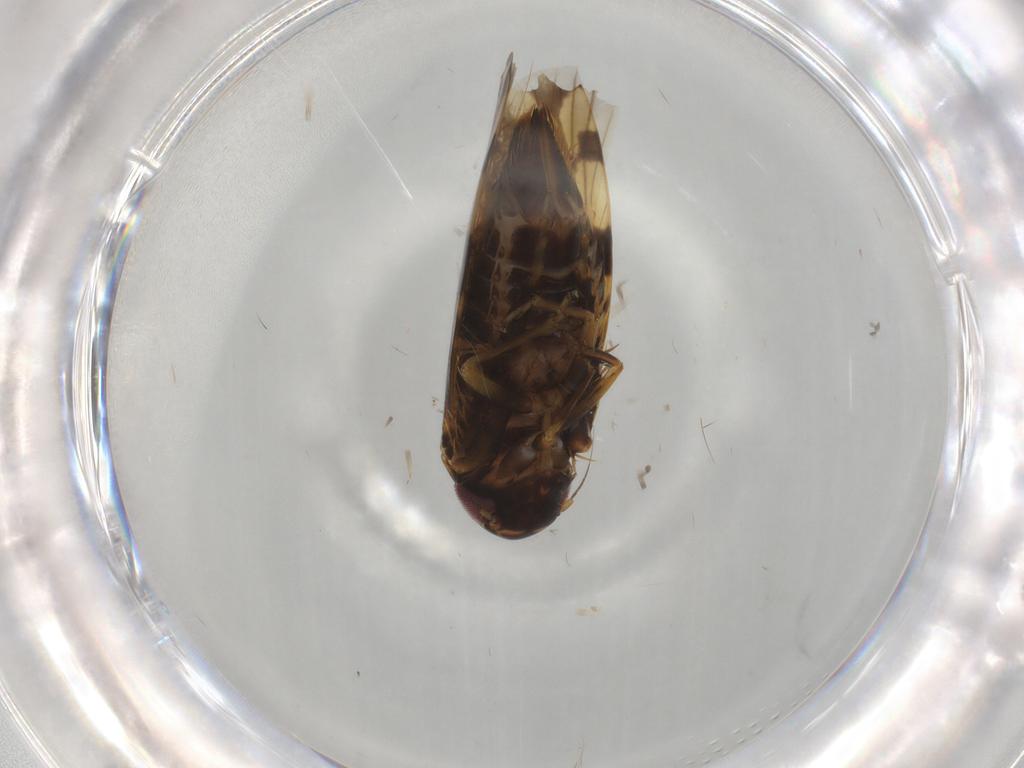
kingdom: Animalia
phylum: Arthropoda
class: Insecta
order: Hemiptera
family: Cicadellidae
